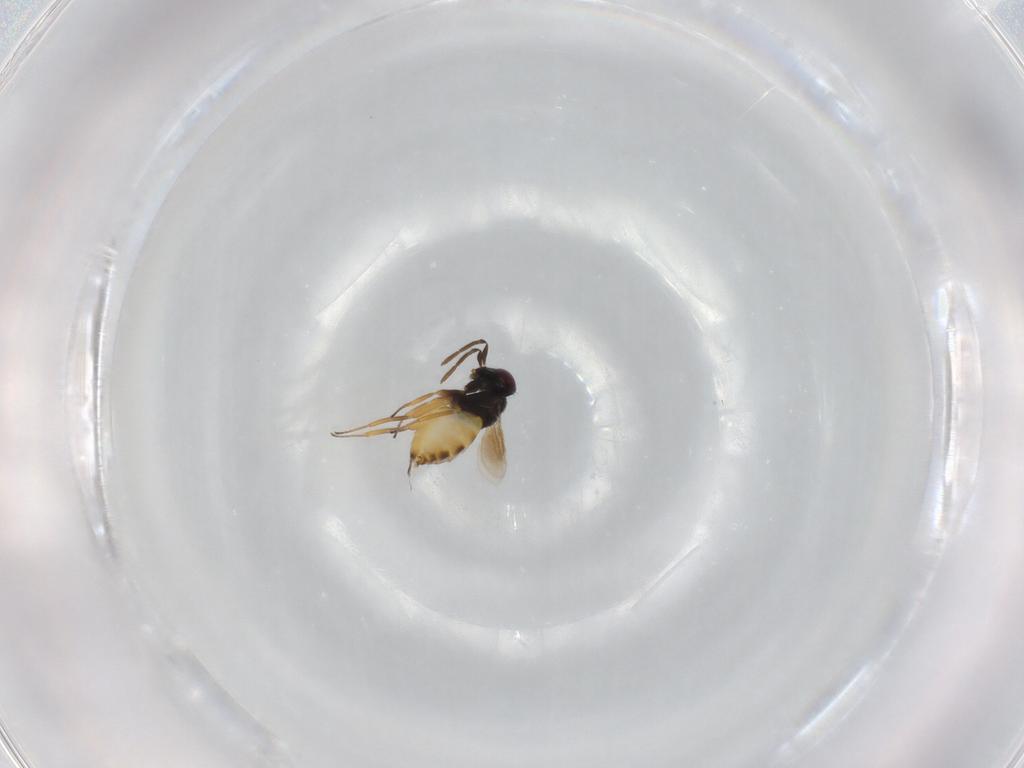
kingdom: Animalia
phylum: Arthropoda
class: Insecta
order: Hymenoptera
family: Aphelinidae
